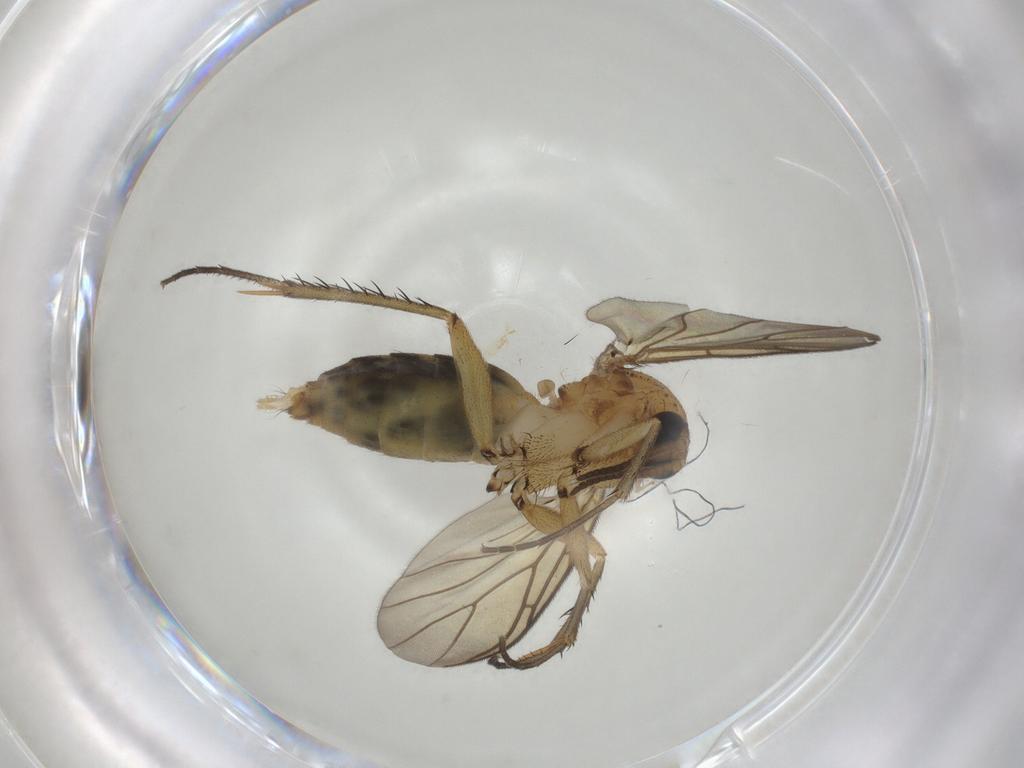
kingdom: Animalia
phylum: Arthropoda
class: Insecta
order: Diptera
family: Mycetophilidae
